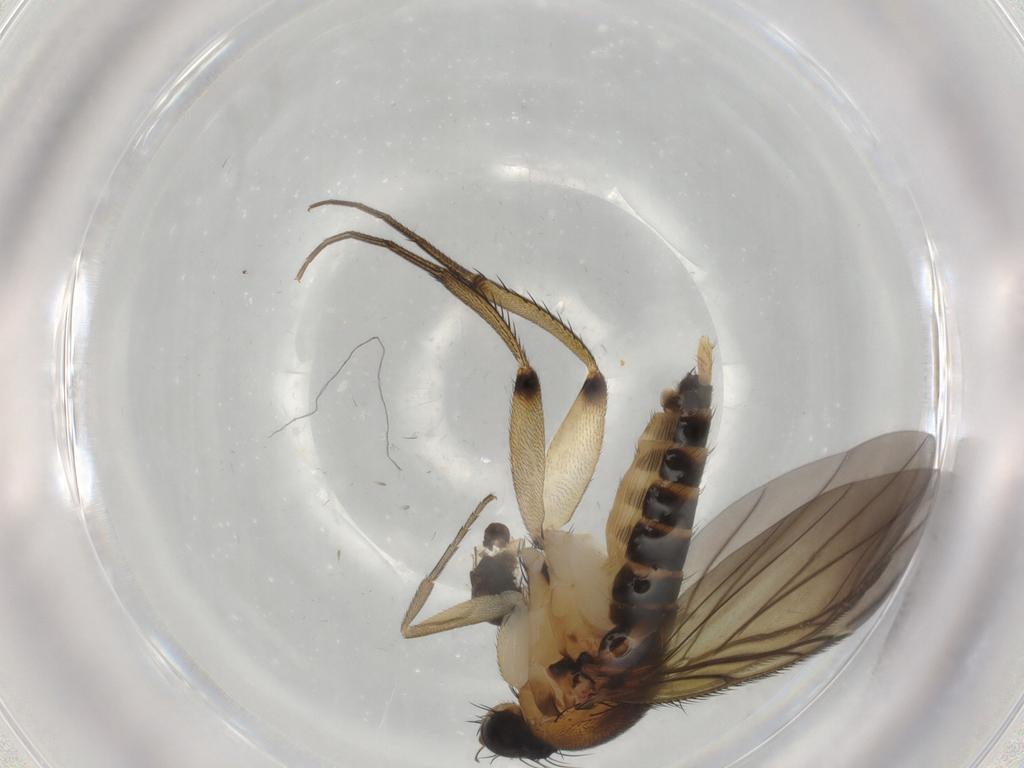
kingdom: Animalia
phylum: Arthropoda
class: Insecta
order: Diptera
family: Phoridae
